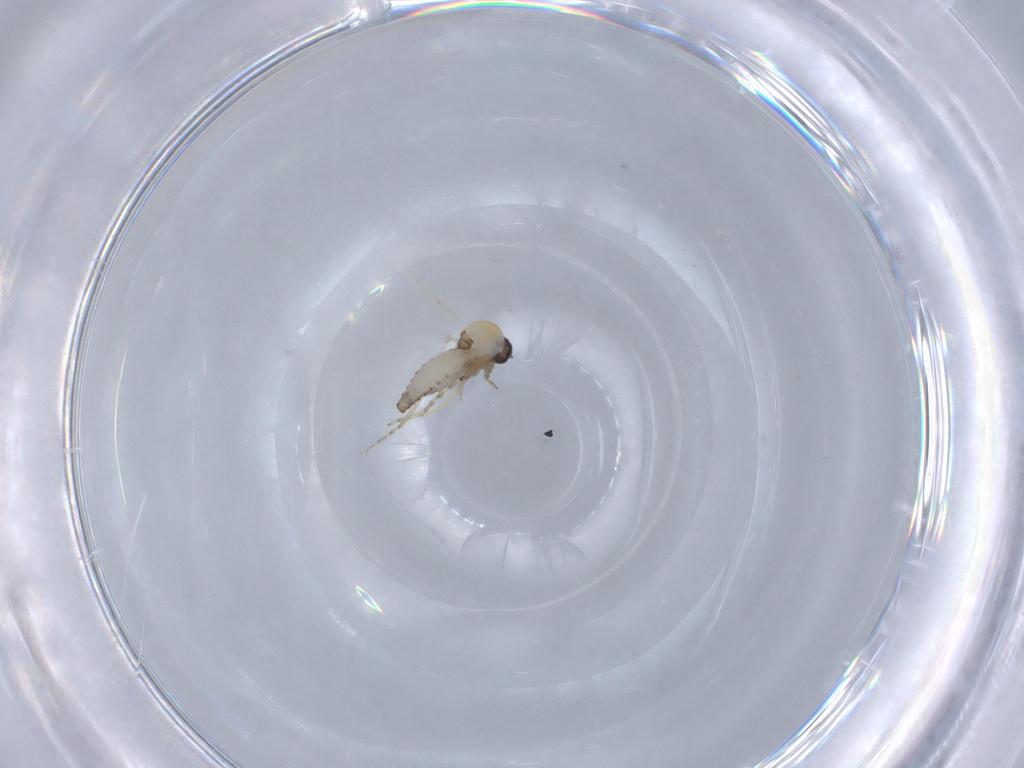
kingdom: Animalia
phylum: Arthropoda
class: Insecta
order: Diptera
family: Ceratopogonidae
